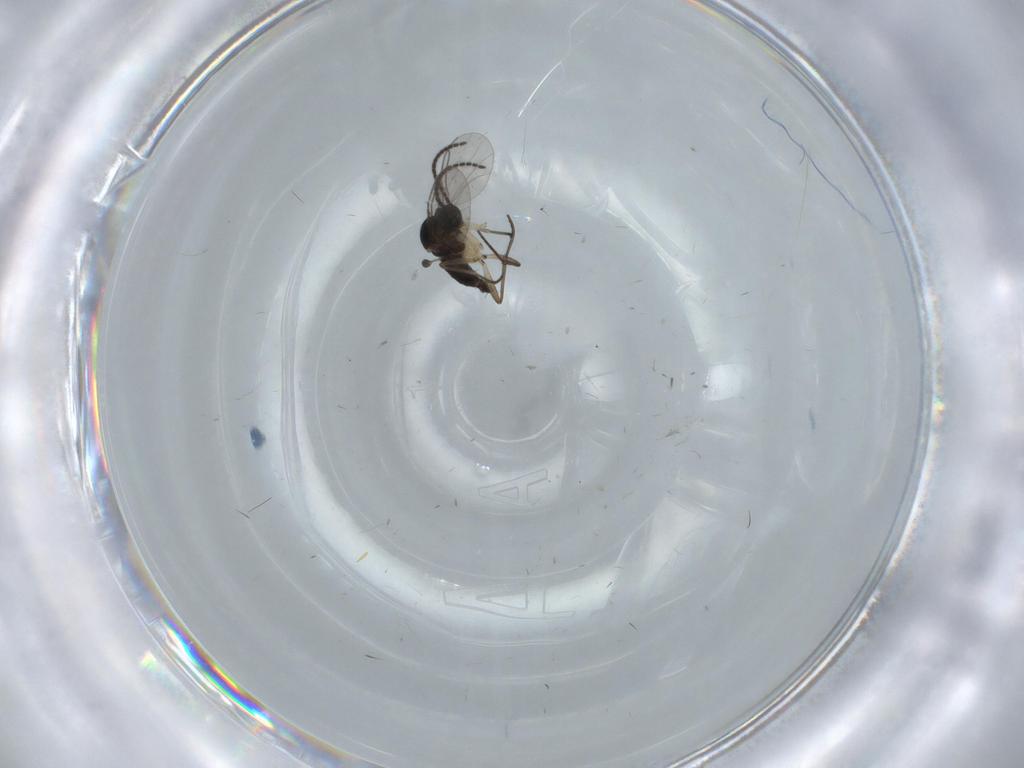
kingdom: Animalia
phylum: Arthropoda
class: Insecta
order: Diptera
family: Sciaridae
